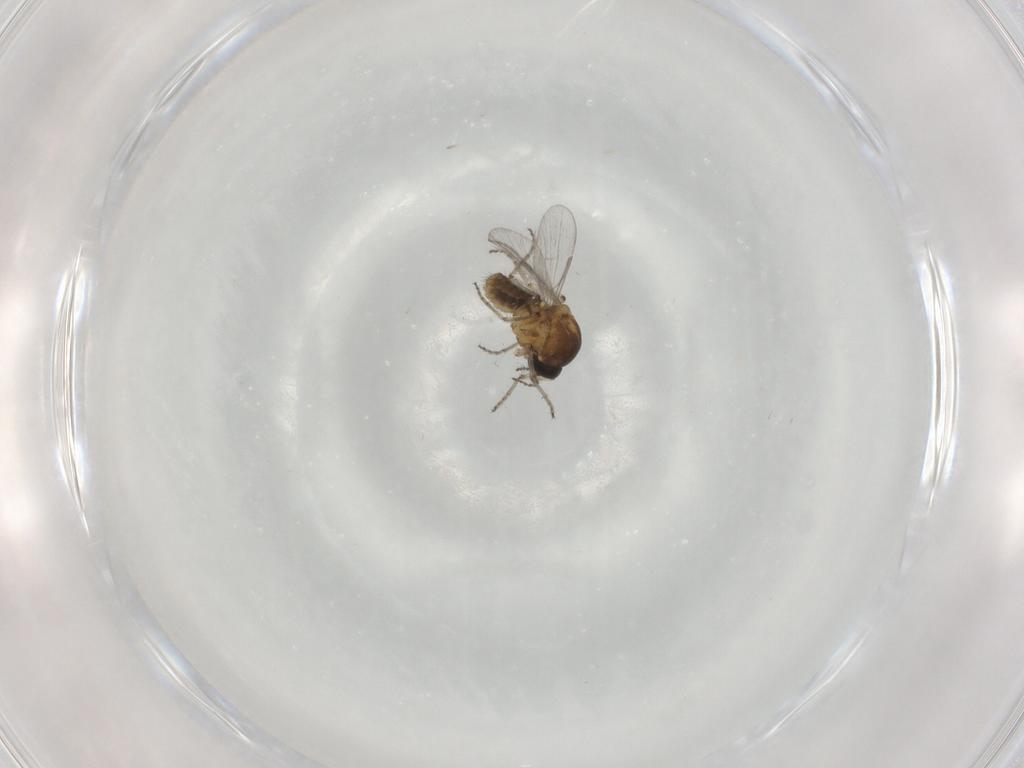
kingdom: Animalia
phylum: Arthropoda
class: Insecta
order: Diptera
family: Ceratopogonidae
